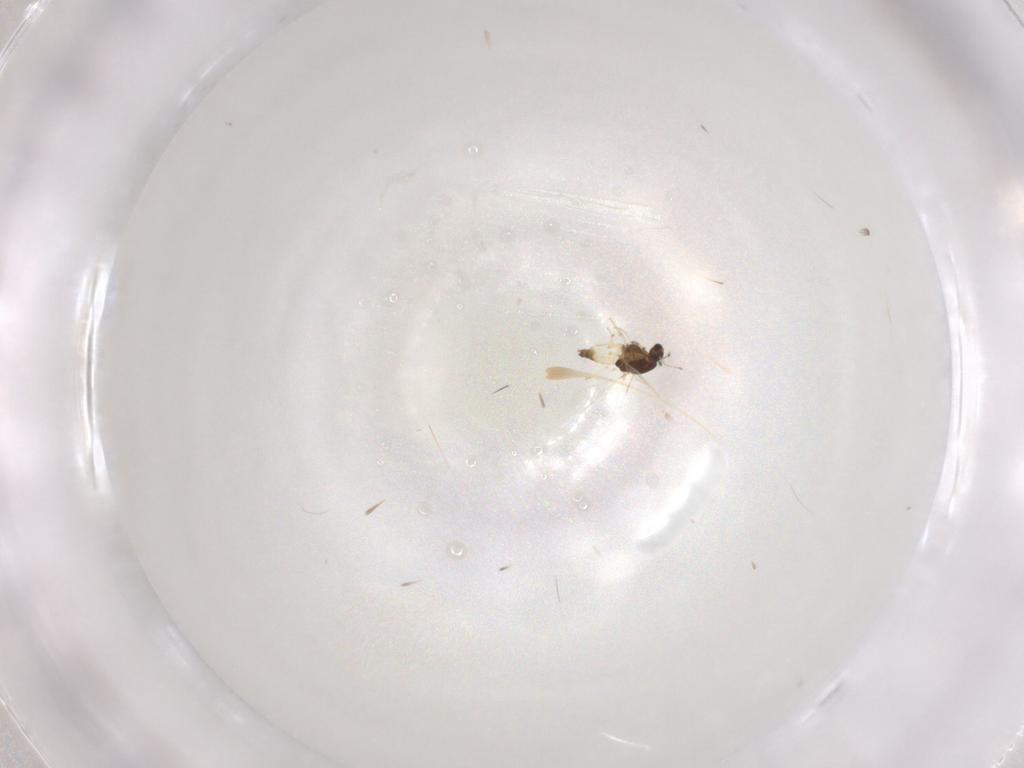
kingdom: Animalia
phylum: Arthropoda
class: Insecta
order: Diptera
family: Chironomidae
